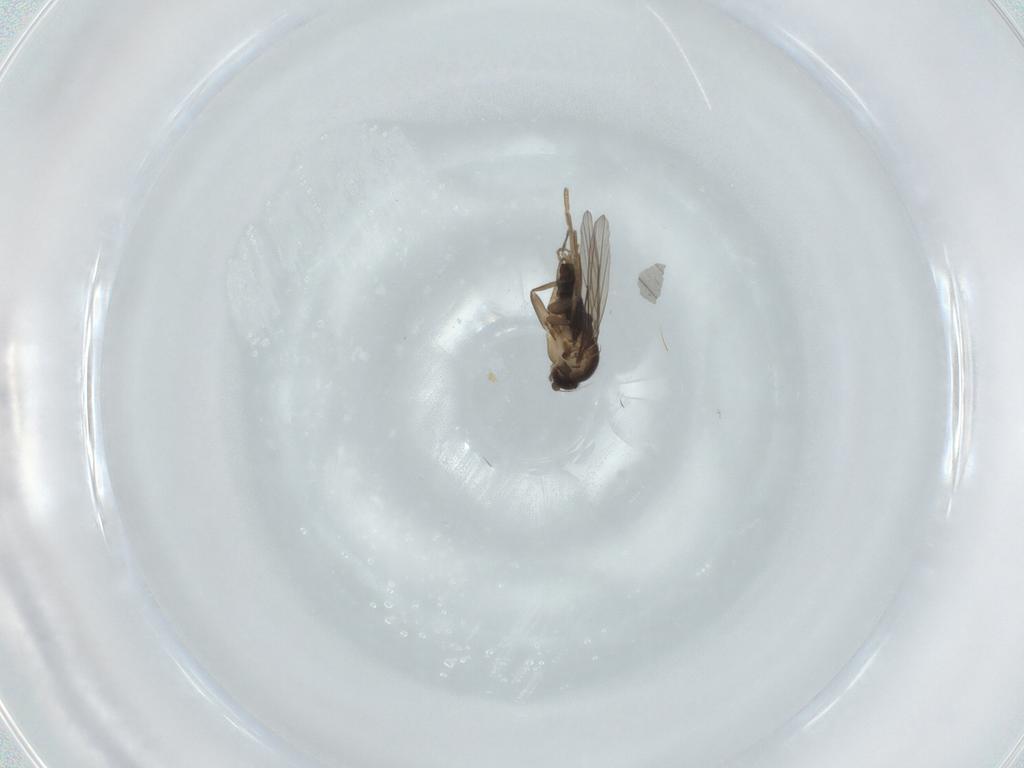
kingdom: Animalia
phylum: Arthropoda
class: Insecta
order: Diptera
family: Phoridae
